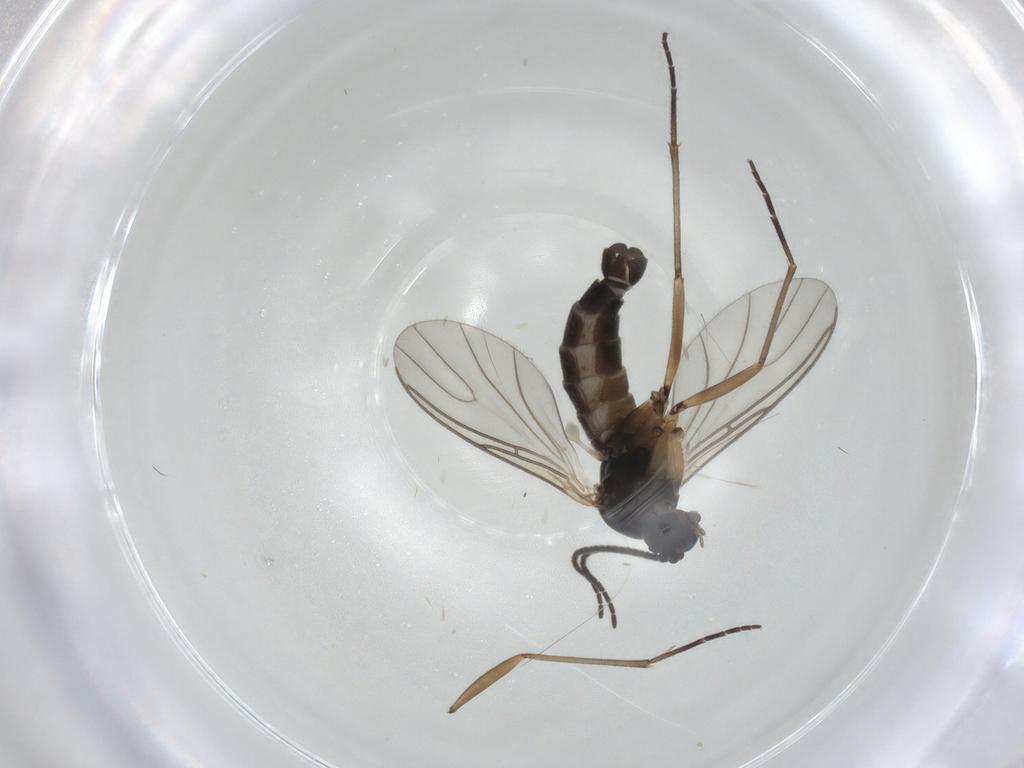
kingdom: Animalia
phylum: Arthropoda
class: Insecta
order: Diptera
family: Sciaridae
